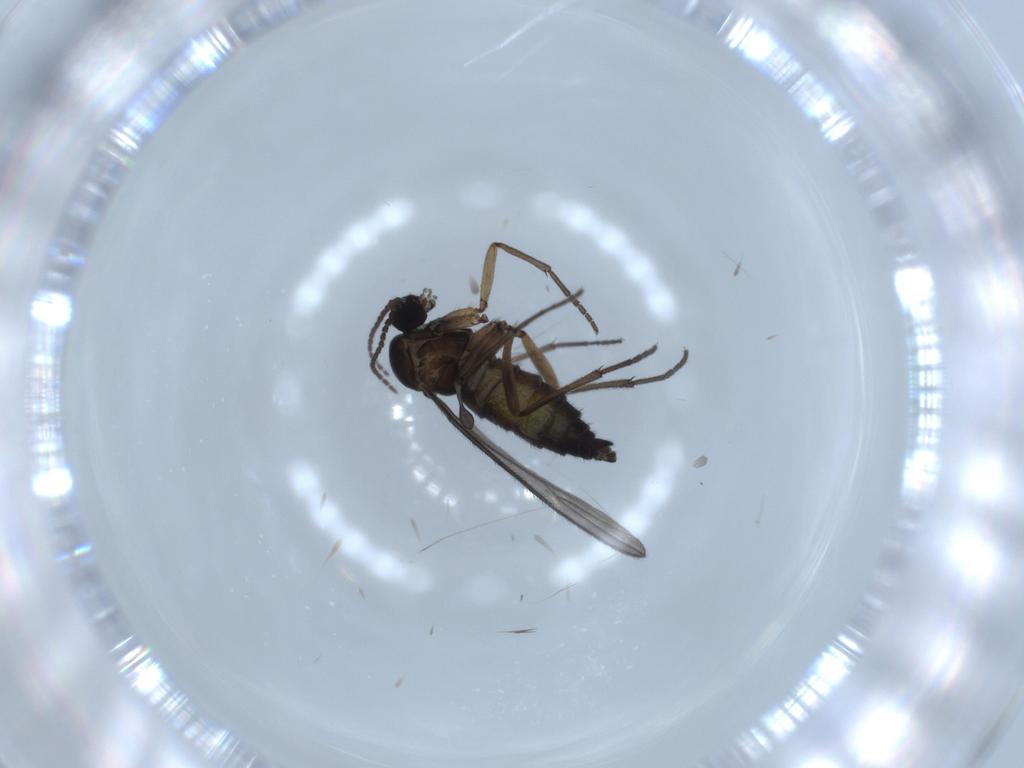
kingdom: Animalia
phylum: Arthropoda
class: Insecta
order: Diptera
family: Sciaridae
